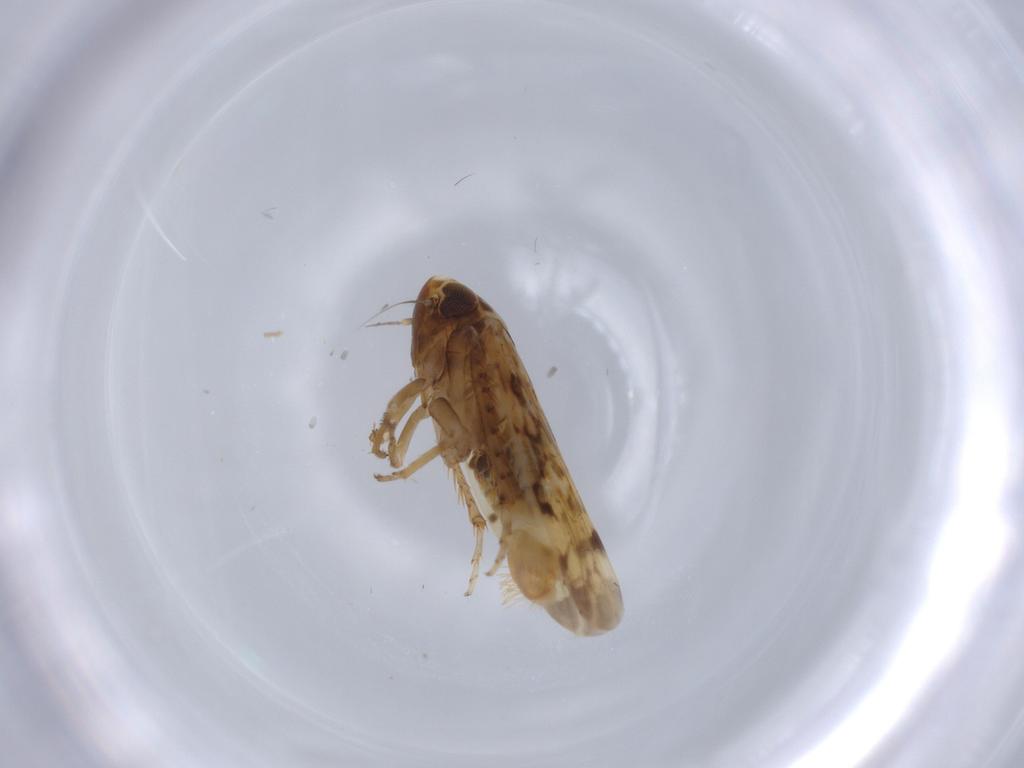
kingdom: Animalia
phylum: Arthropoda
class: Insecta
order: Hemiptera
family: Cicadellidae
